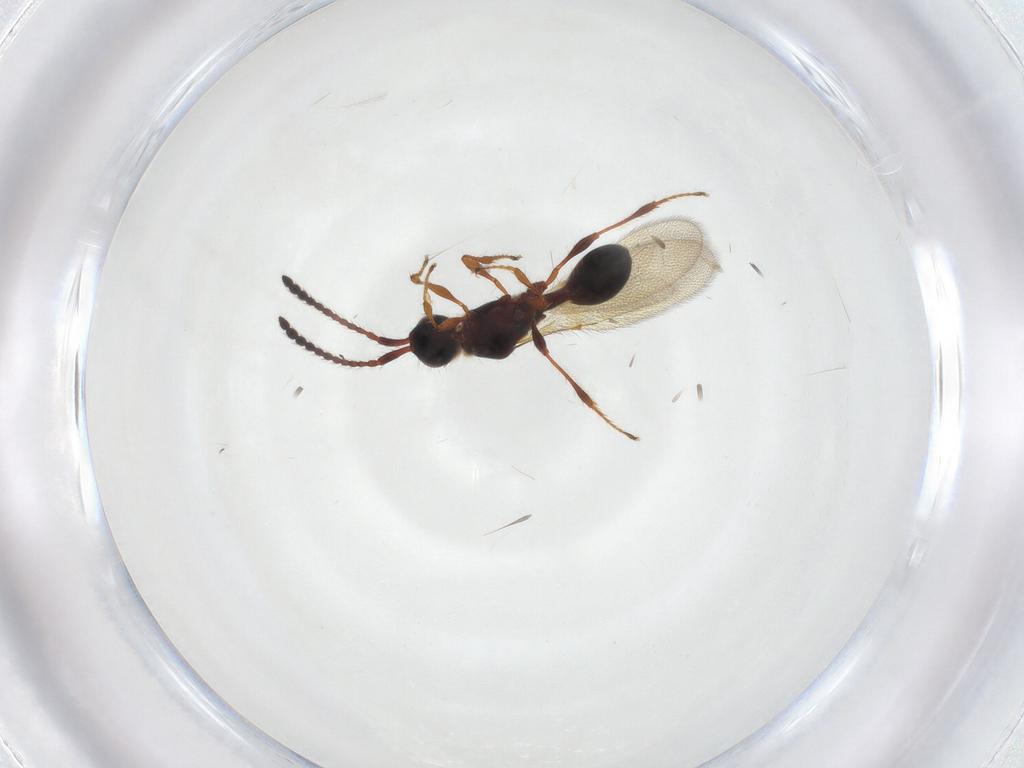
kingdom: Animalia
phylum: Arthropoda
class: Insecta
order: Hymenoptera
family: Diapriidae
